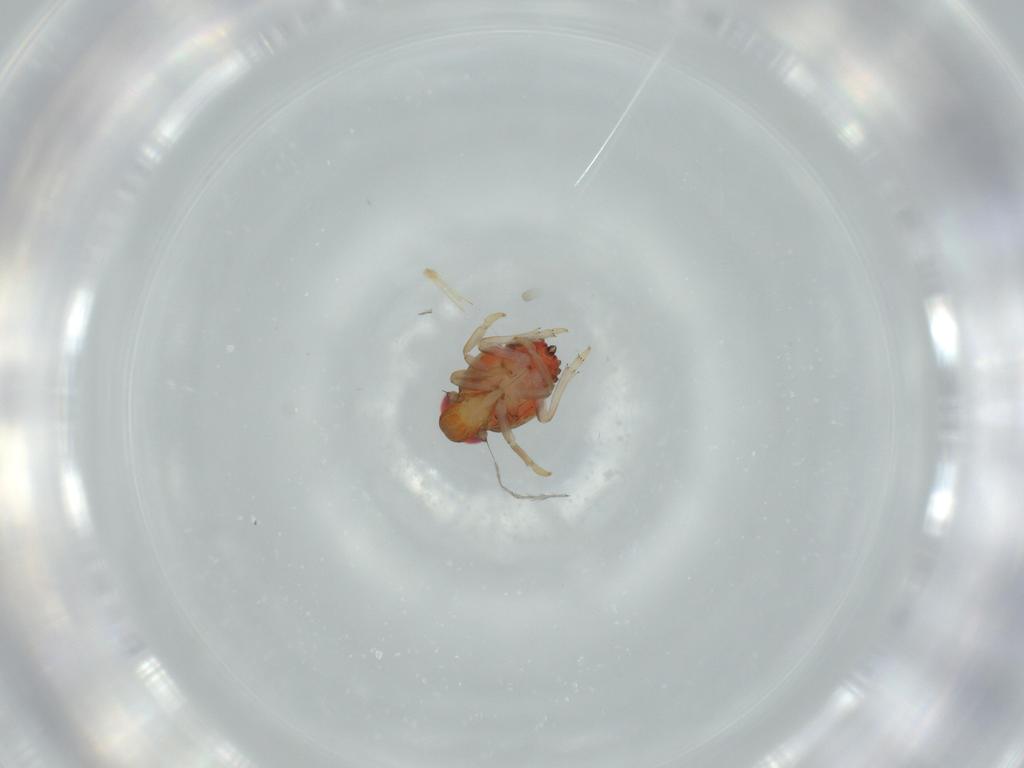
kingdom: Animalia
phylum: Arthropoda
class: Insecta
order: Hemiptera
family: Issidae
